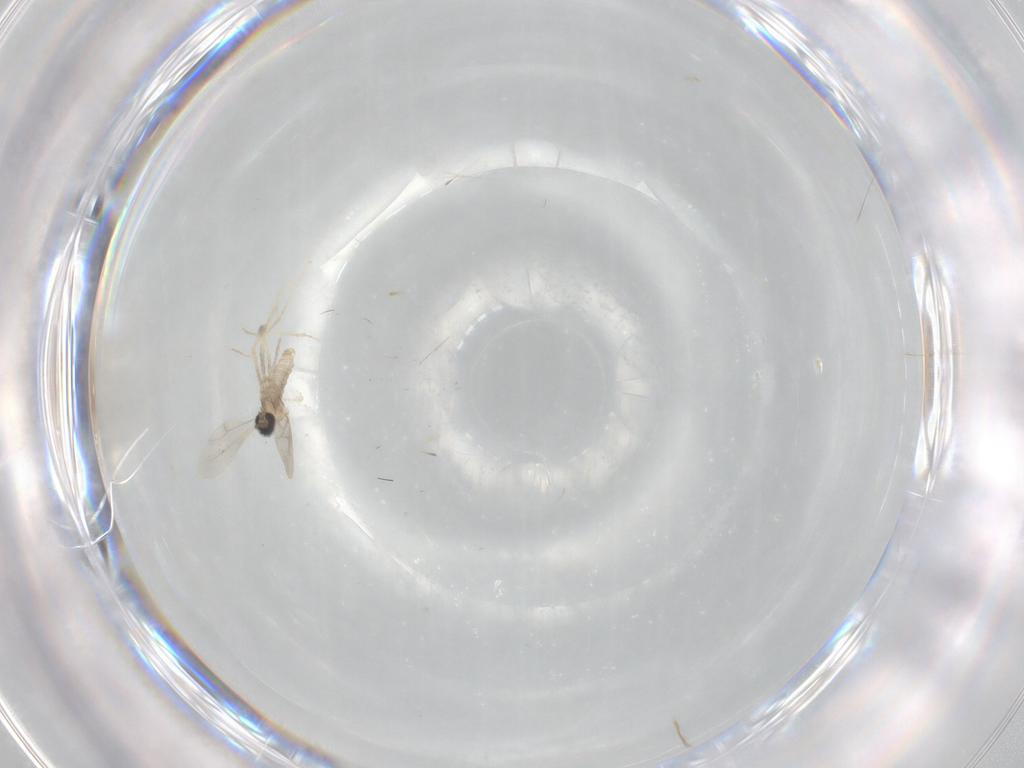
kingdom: Animalia
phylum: Arthropoda
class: Insecta
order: Diptera
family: Cecidomyiidae
